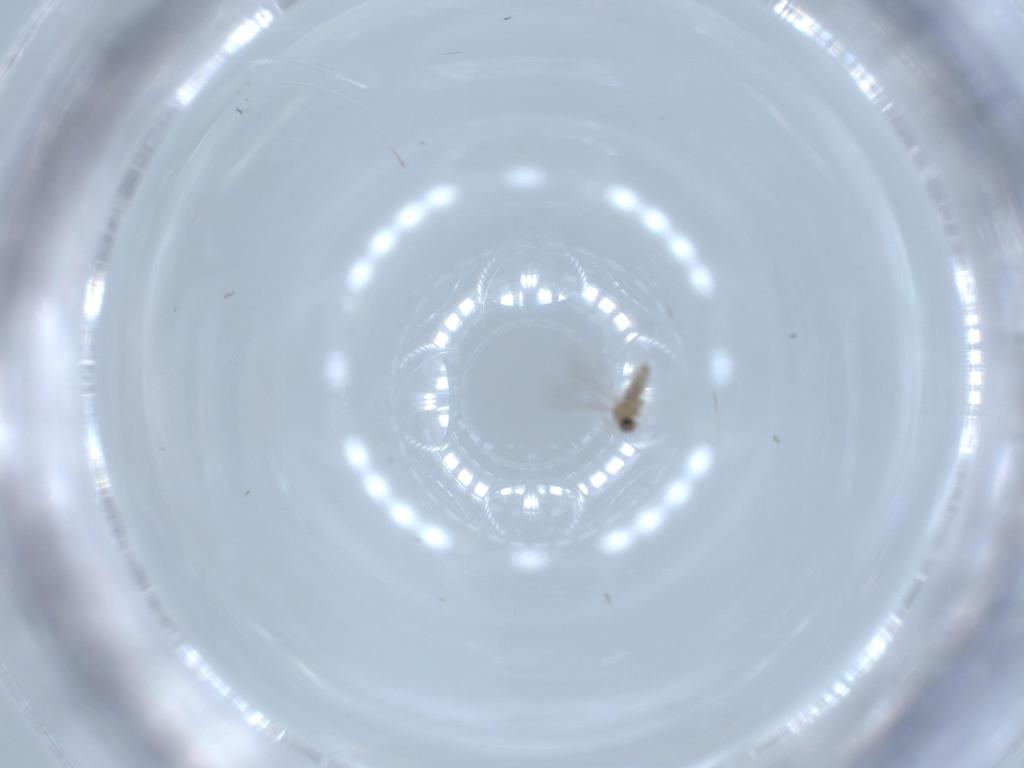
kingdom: Animalia
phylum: Arthropoda
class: Insecta
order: Diptera
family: Cecidomyiidae
